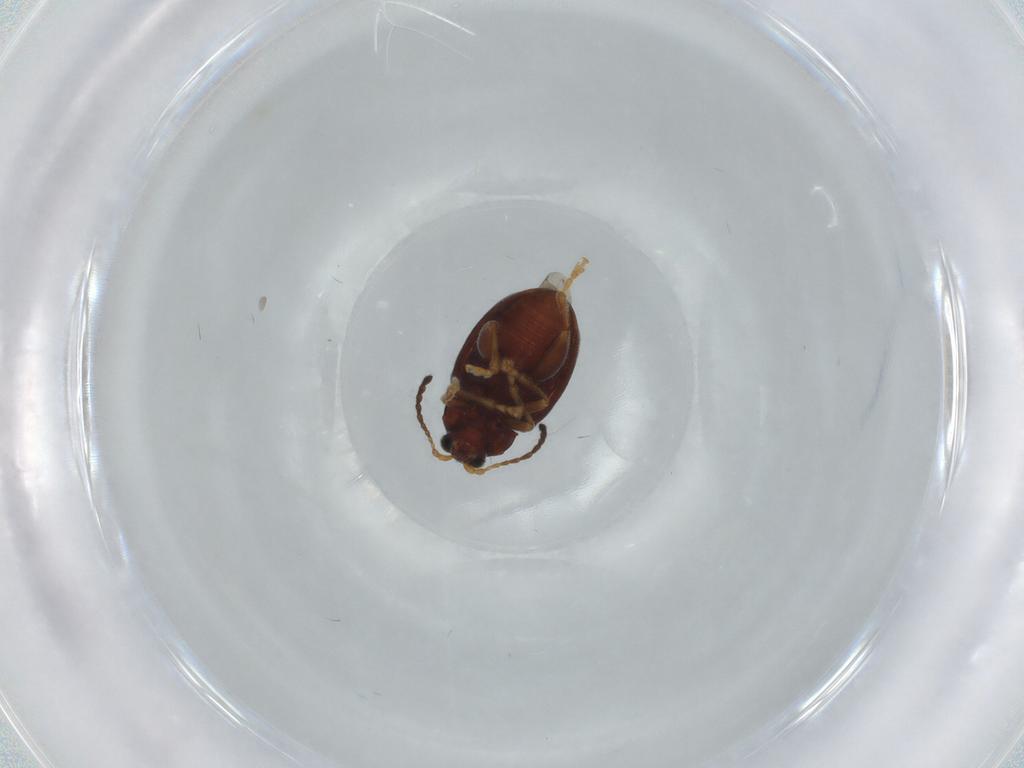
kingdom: Animalia
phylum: Arthropoda
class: Insecta
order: Coleoptera
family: Chrysomelidae
